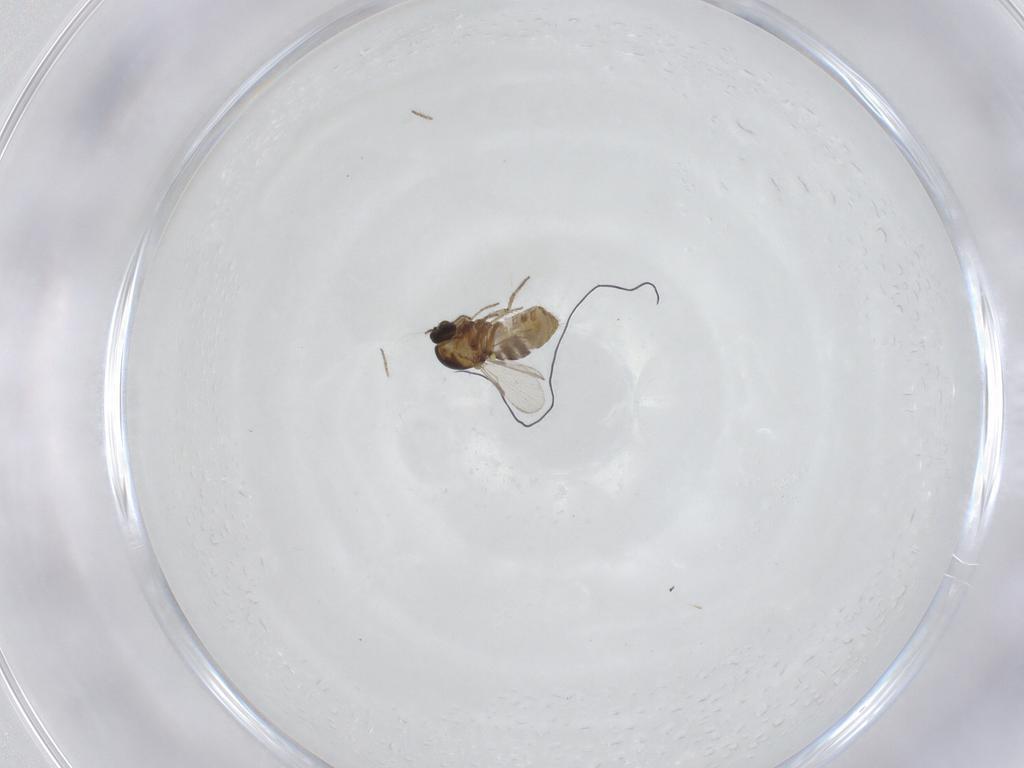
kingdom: Animalia
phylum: Arthropoda
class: Insecta
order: Diptera
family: Ceratopogonidae
